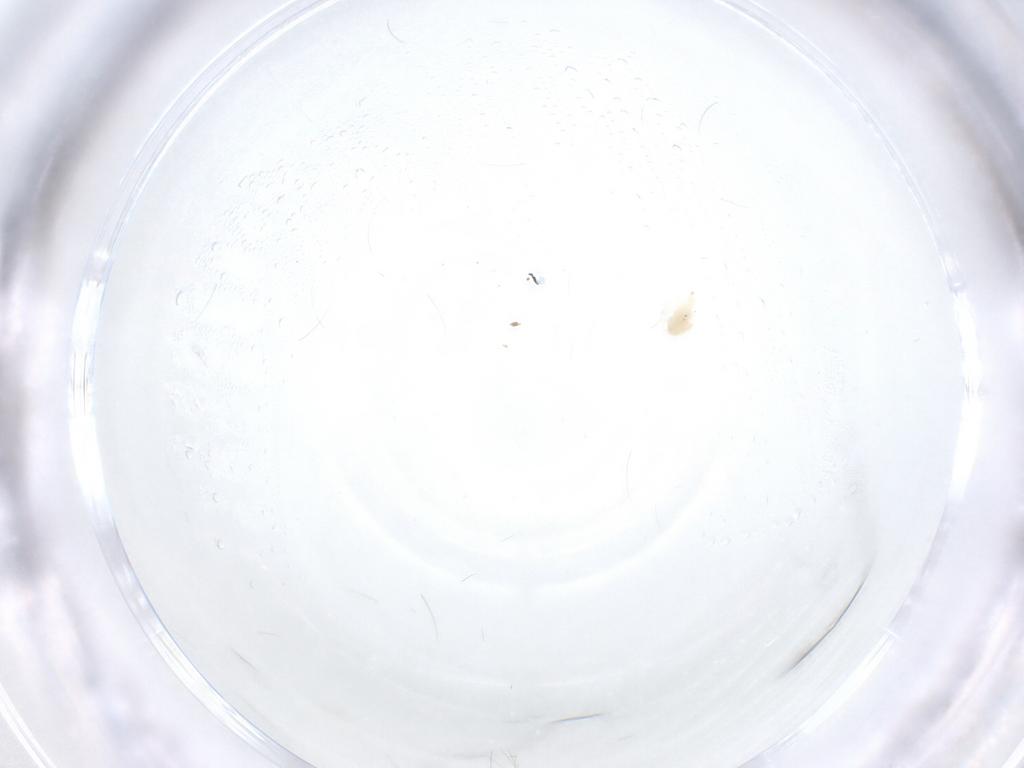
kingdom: Animalia
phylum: Arthropoda
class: Arachnida
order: Trombidiformes
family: Bdellidae
